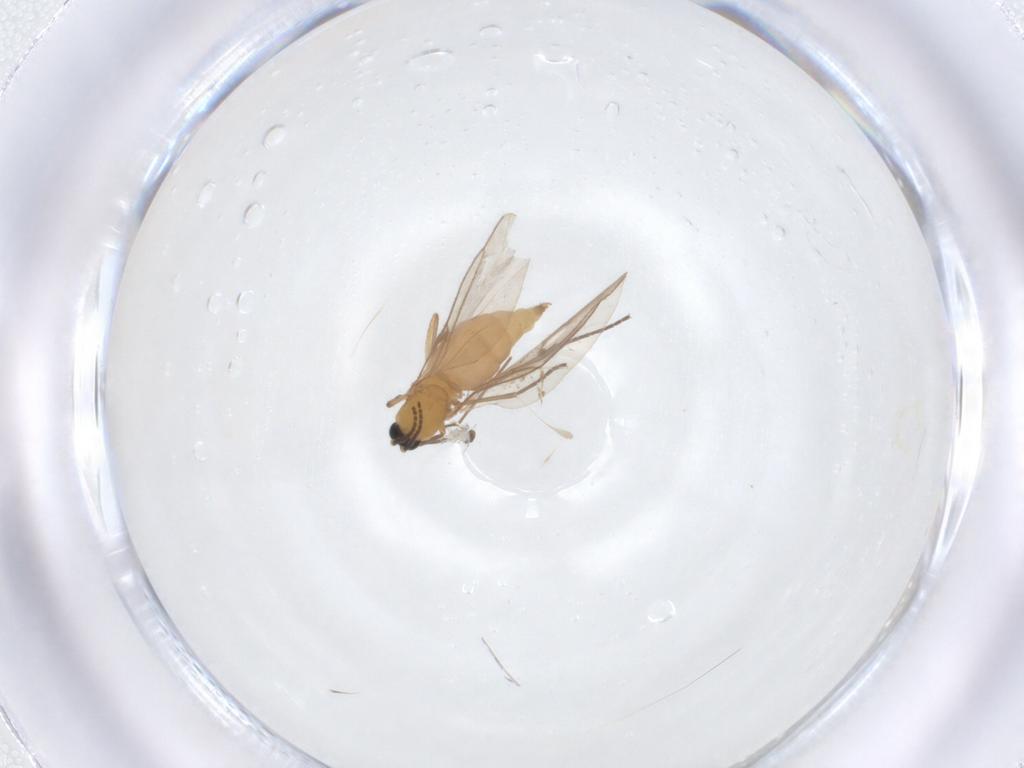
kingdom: Animalia
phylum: Arthropoda
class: Insecta
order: Diptera
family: Sciaridae
